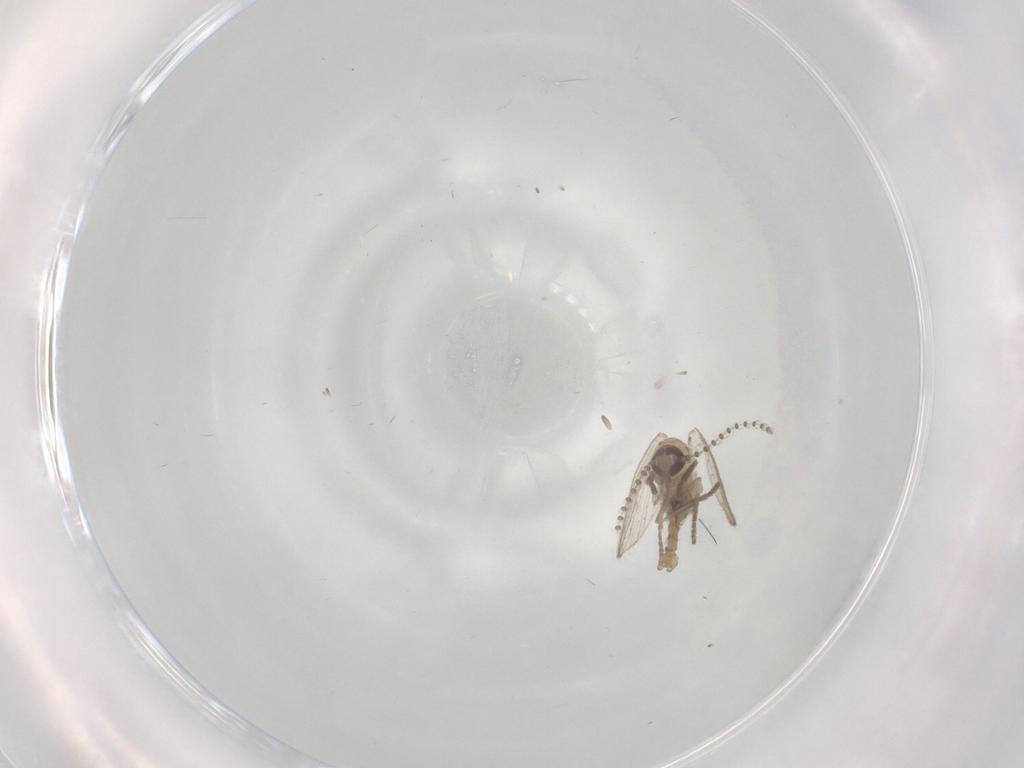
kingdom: Animalia
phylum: Arthropoda
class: Insecta
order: Diptera
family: Psychodidae
